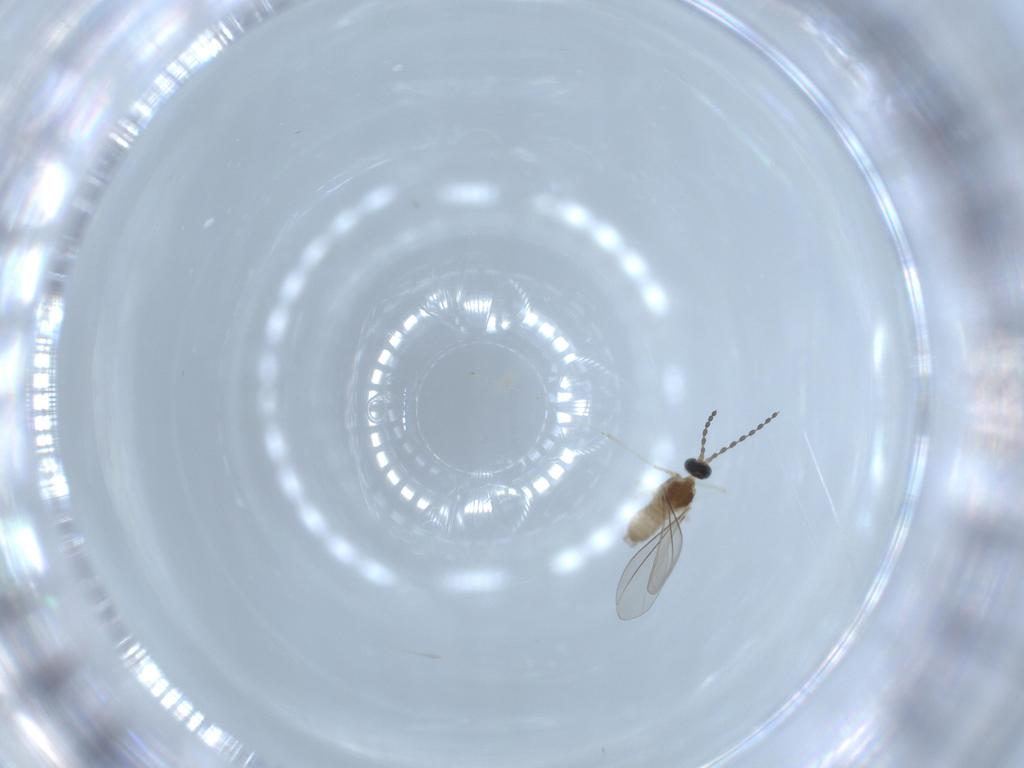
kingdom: Animalia
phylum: Arthropoda
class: Insecta
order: Diptera
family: Cecidomyiidae
